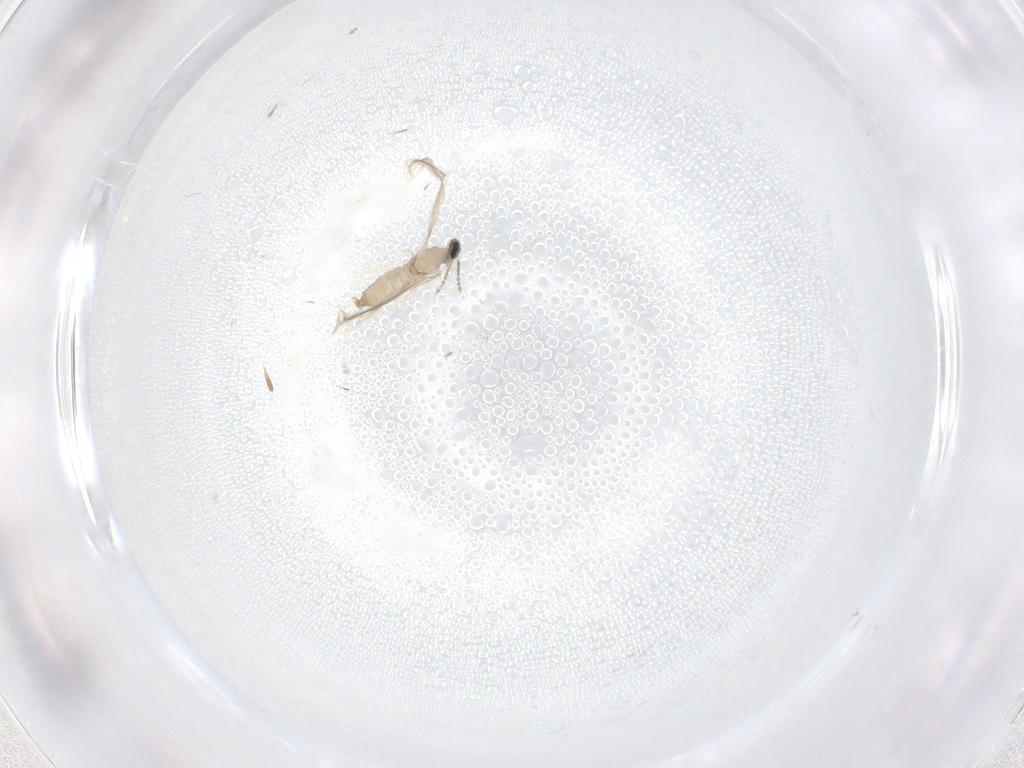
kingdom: Animalia
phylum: Arthropoda
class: Insecta
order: Diptera
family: Cecidomyiidae
